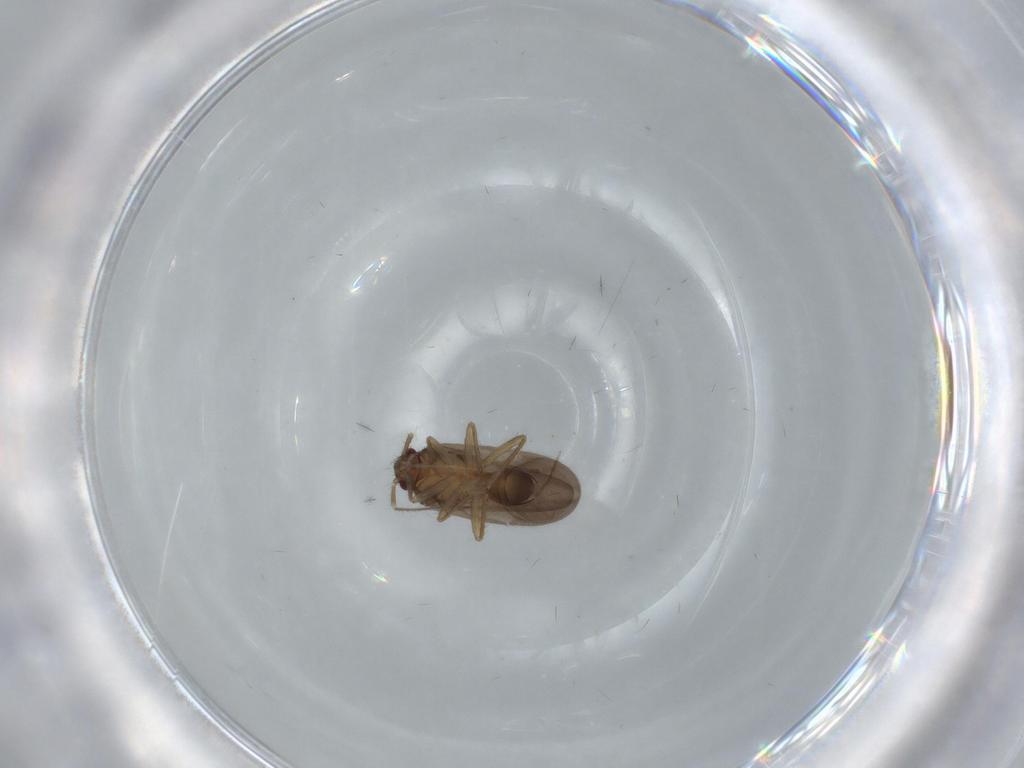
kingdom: Animalia
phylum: Arthropoda
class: Insecta
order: Hemiptera
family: Ceratocombidae
